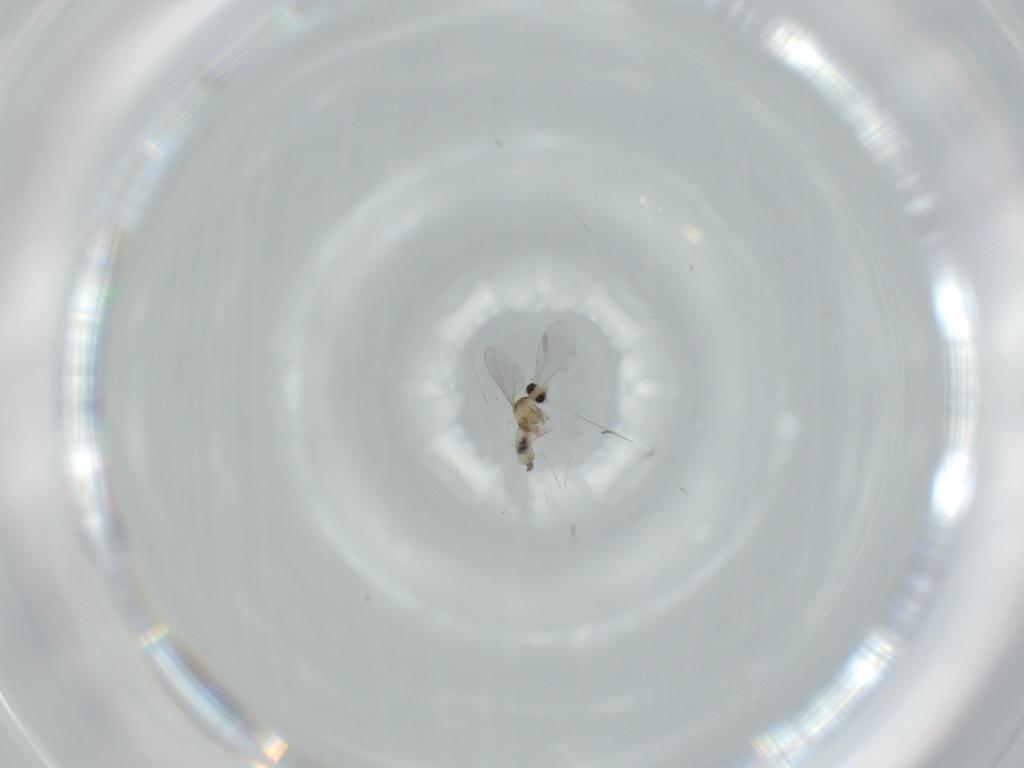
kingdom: Animalia
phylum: Arthropoda
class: Insecta
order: Diptera
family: Cecidomyiidae
